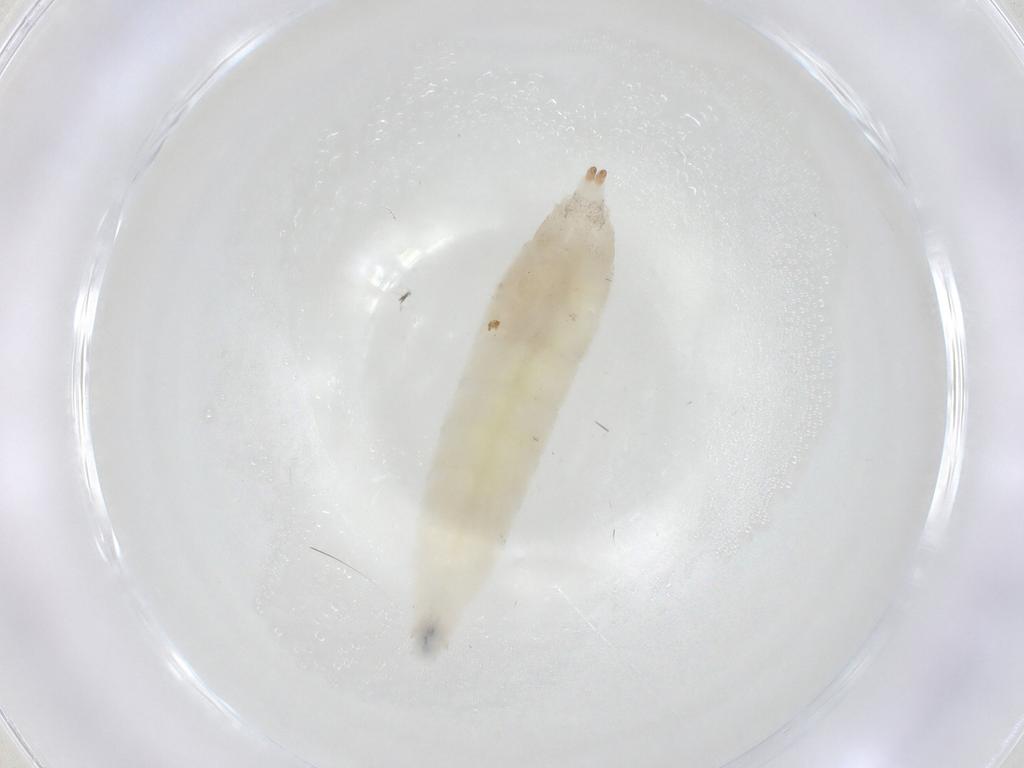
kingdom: Animalia
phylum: Arthropoda
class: Insecta
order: Diptera
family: Drosophilidae
